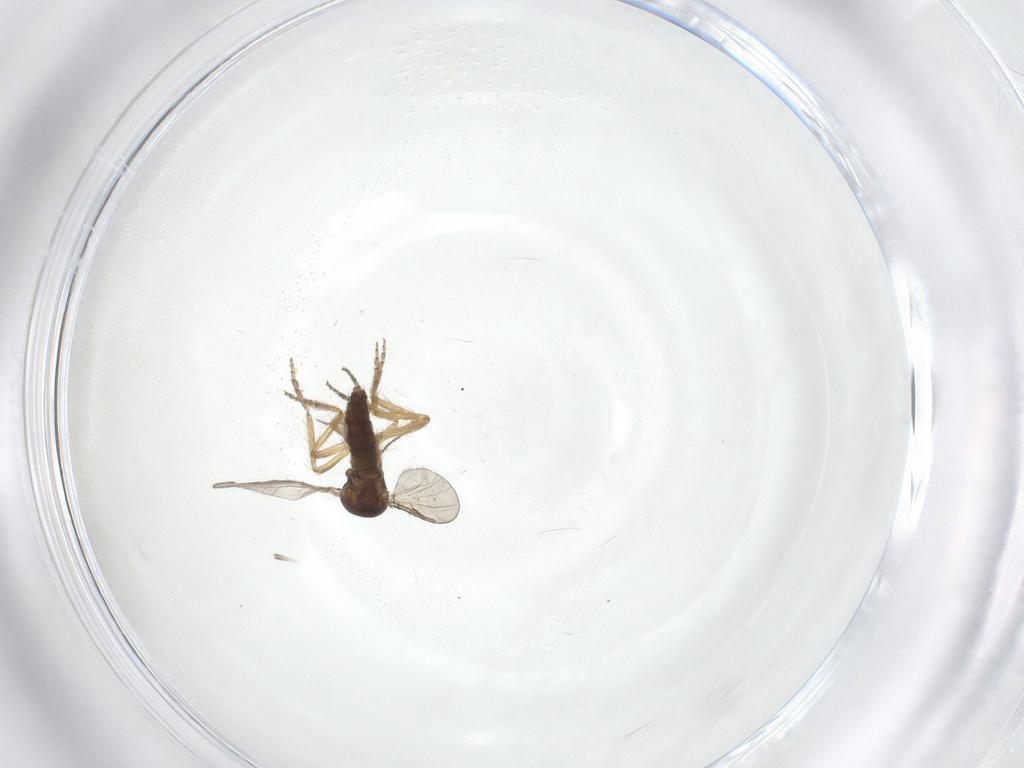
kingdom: Animalia
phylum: Arthropoda
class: Insecta
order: Diptera
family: Ceratopogonidae
